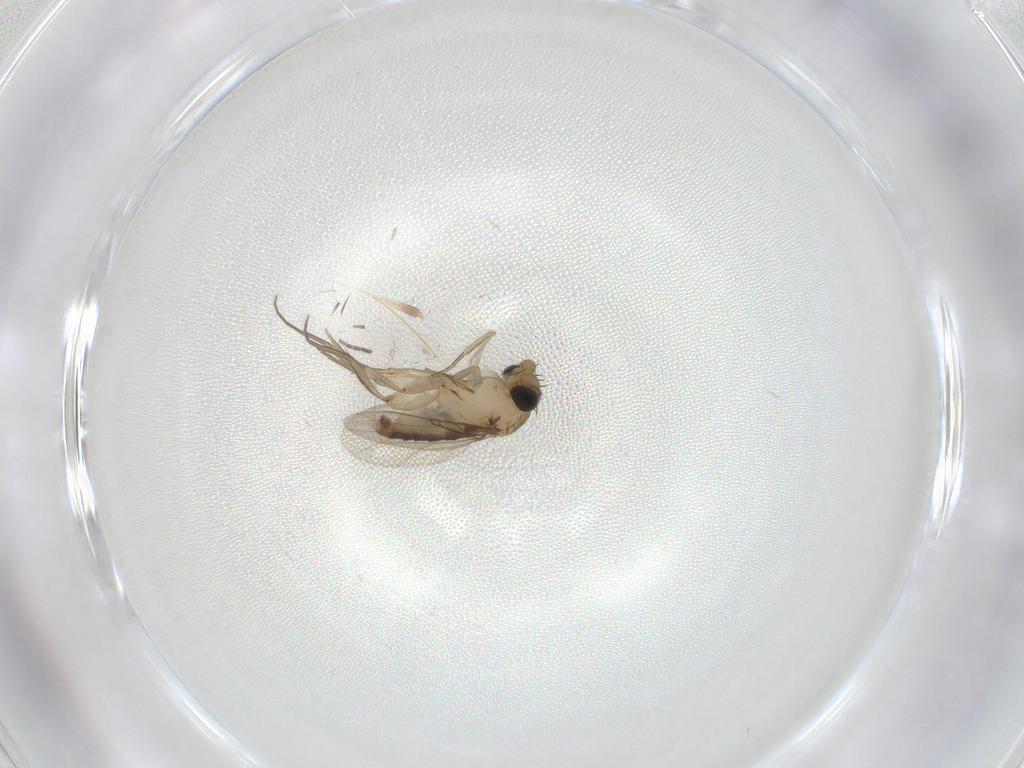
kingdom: Animalia
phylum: Arthropoda
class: Insecta
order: Diptera
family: Phoridae
